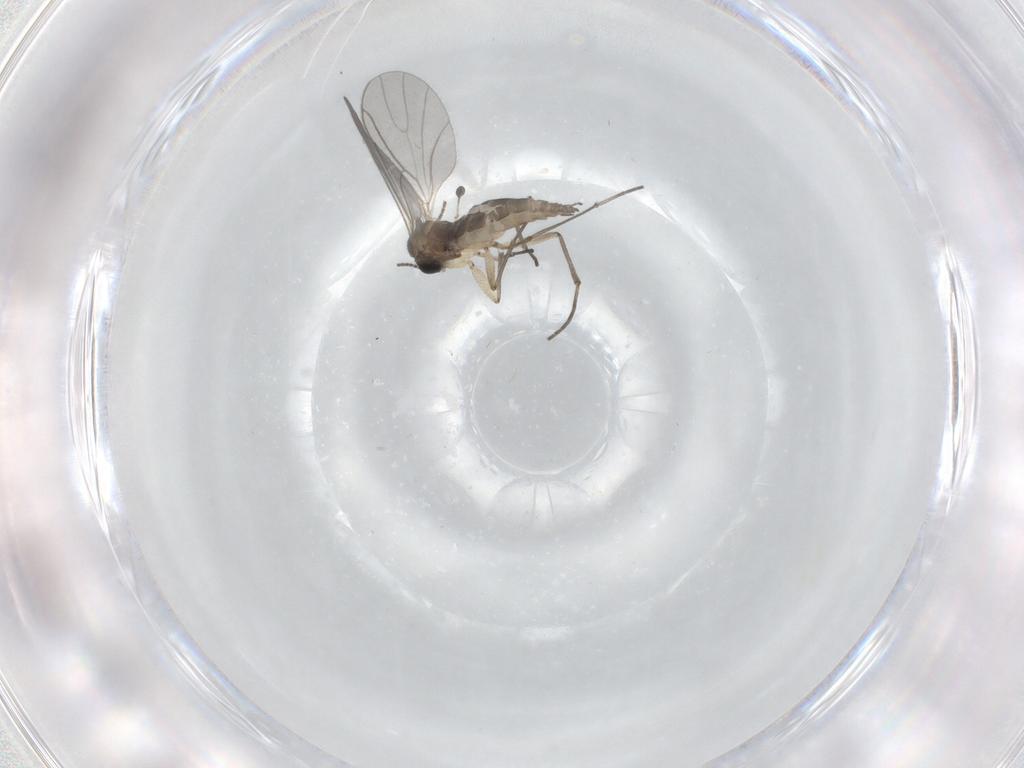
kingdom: Animalia
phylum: Arthropoda
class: Insecta
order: Diptera
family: Sciaridae
